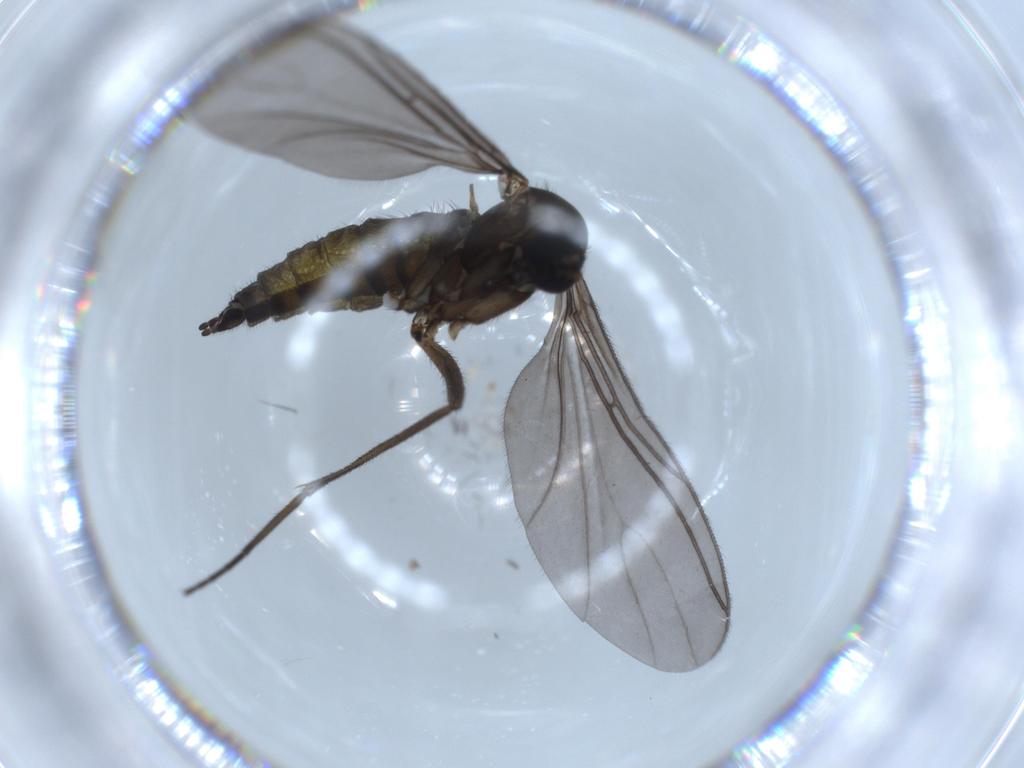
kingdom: Animalia
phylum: Arthropoda
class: Insecta
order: Diptera
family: Sciaridae
